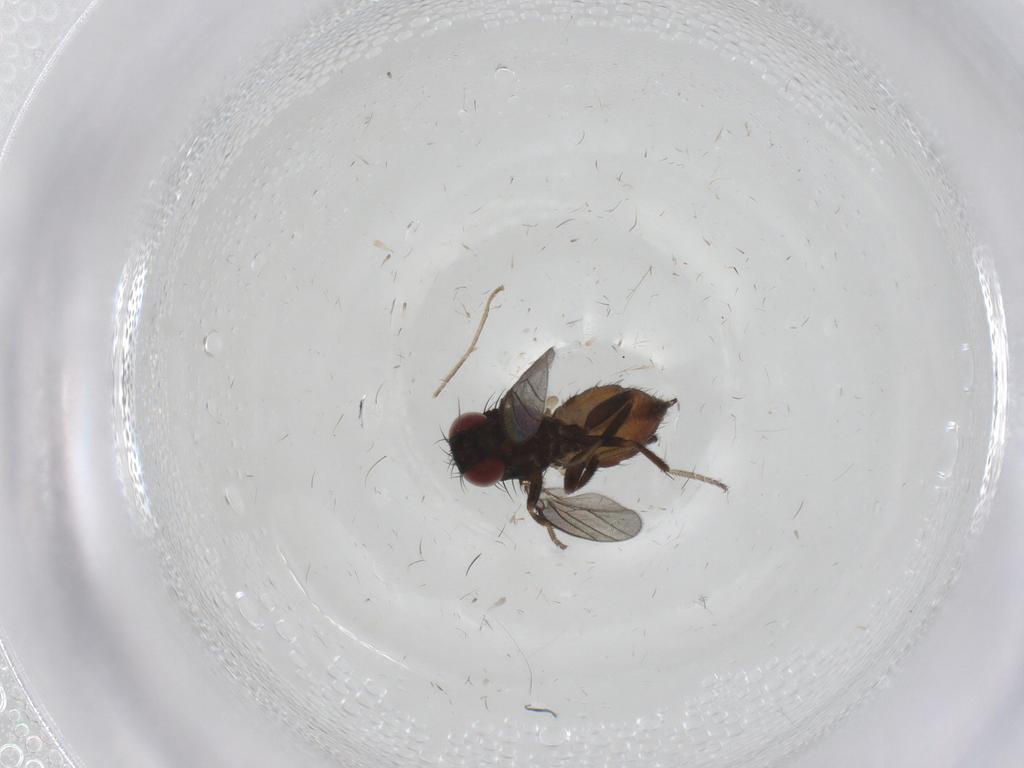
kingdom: Animalia
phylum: Arthropoda
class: Insecta
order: Diptera
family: Milichiidae
